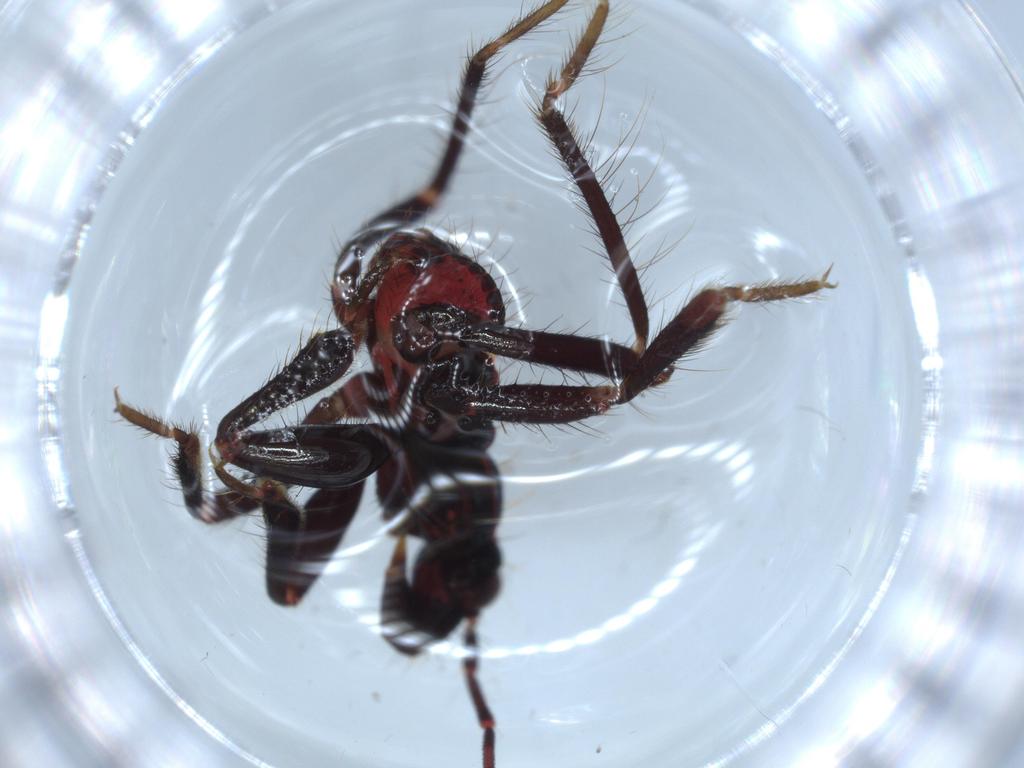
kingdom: Animalia
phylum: Arthropoda
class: Insecta
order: Hemiptera
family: Reduviidae
